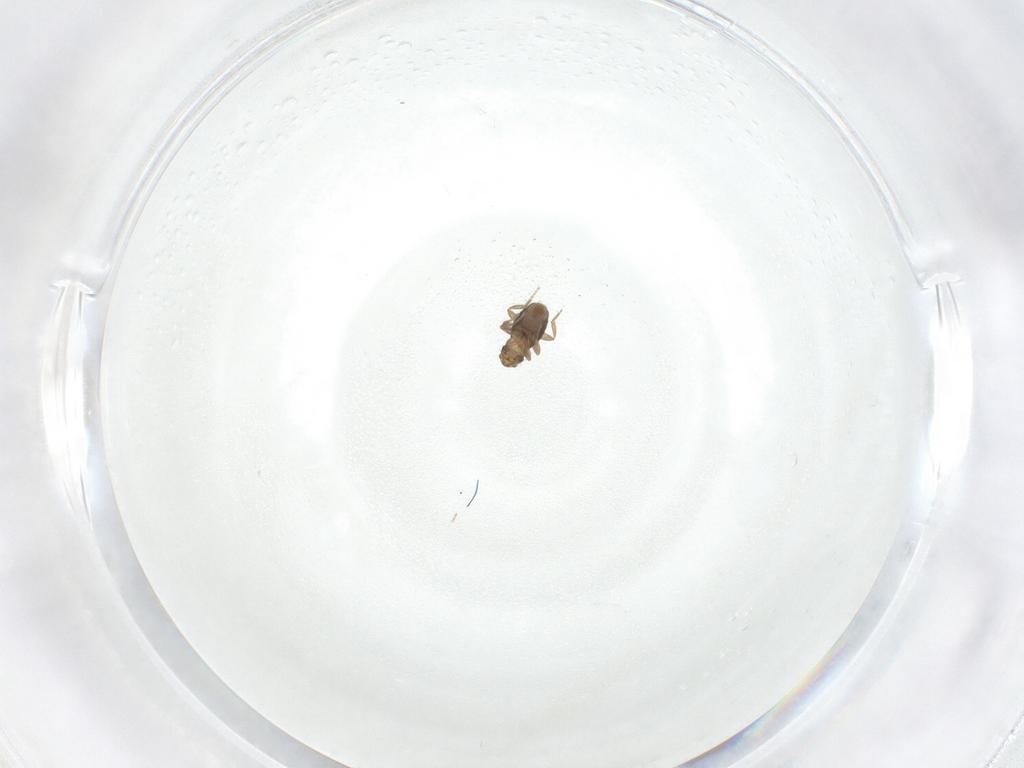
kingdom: Animalia
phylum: Arthropoda
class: Insecta
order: Diptera
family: Phoridae
